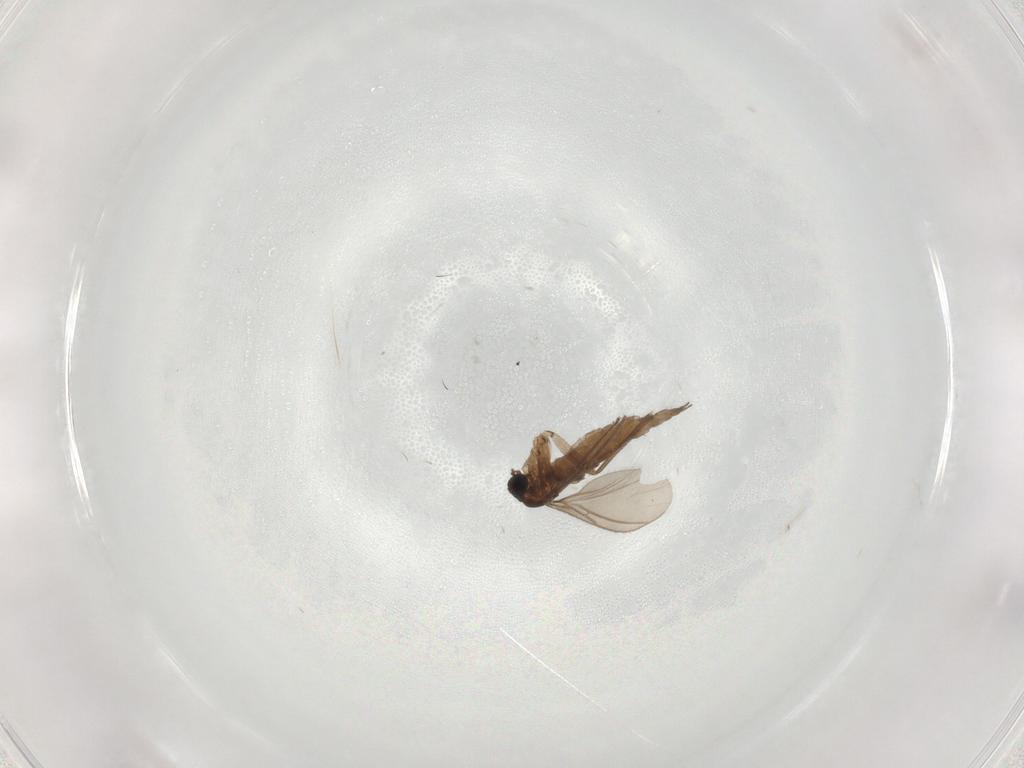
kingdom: Animalia
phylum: Arthropoda
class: Insecta
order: Diptera
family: Sciaridae
